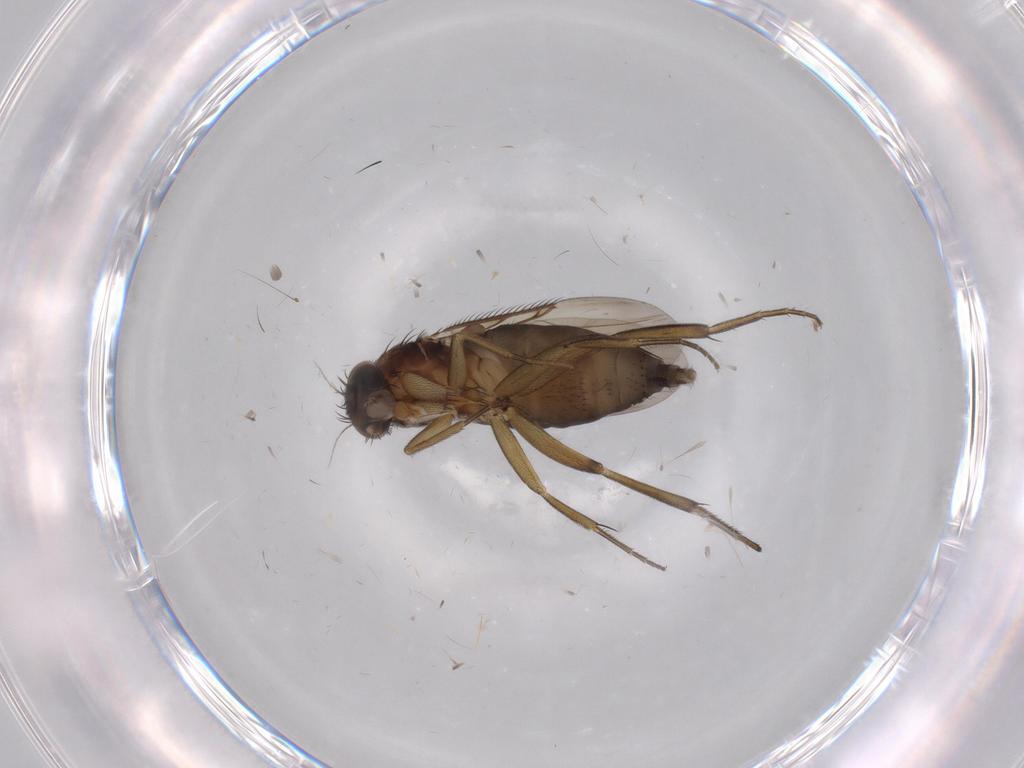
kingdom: Animalia
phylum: Arthropoda
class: Insecta
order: Diptera
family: Phoridae
